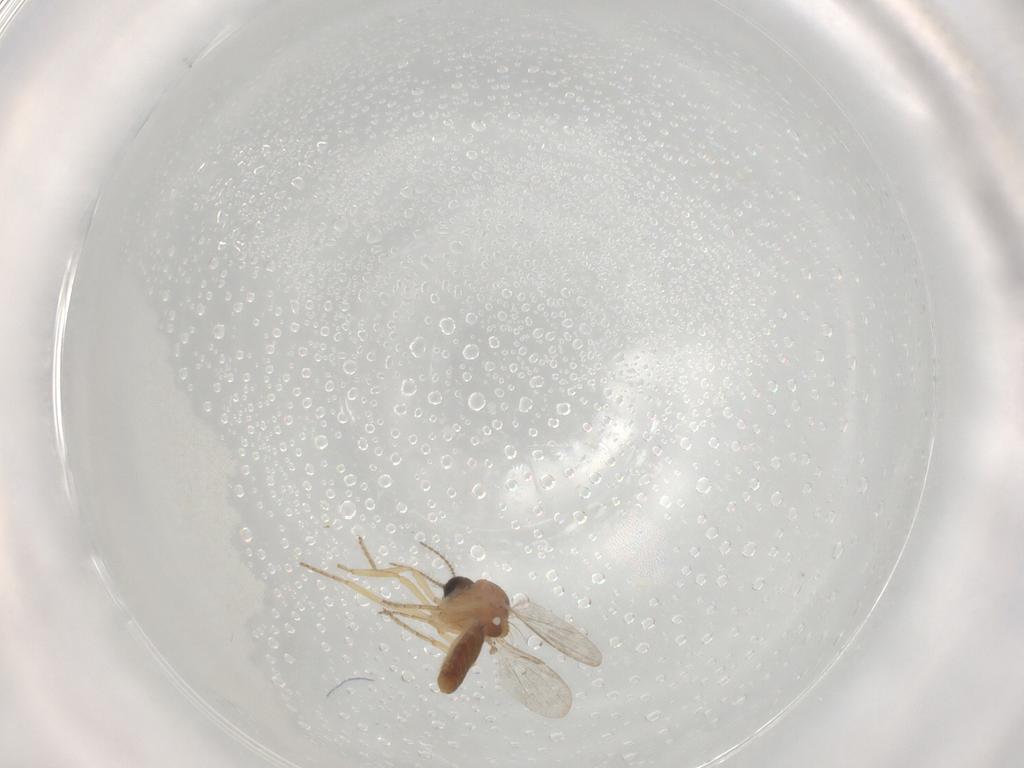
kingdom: Animalia
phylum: Arthropoda
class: Insecta
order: Diptera
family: Ceratopogonidae
